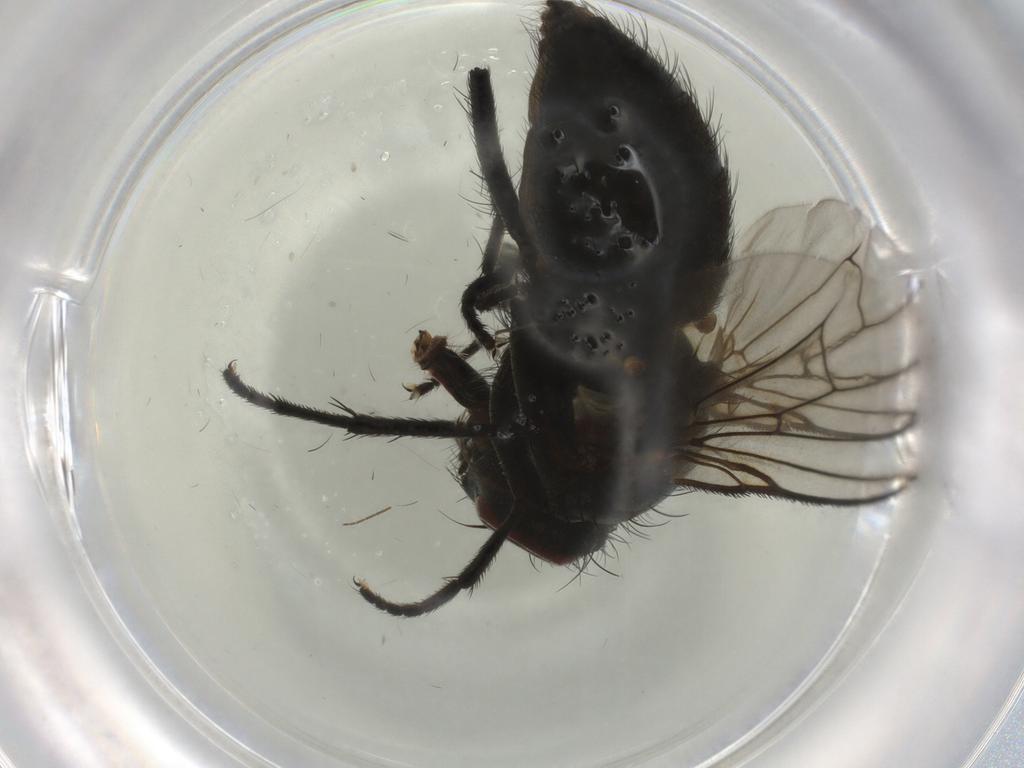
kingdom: Animalia
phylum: Arthropoda
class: Insecta
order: Diptera
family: Muscidae
